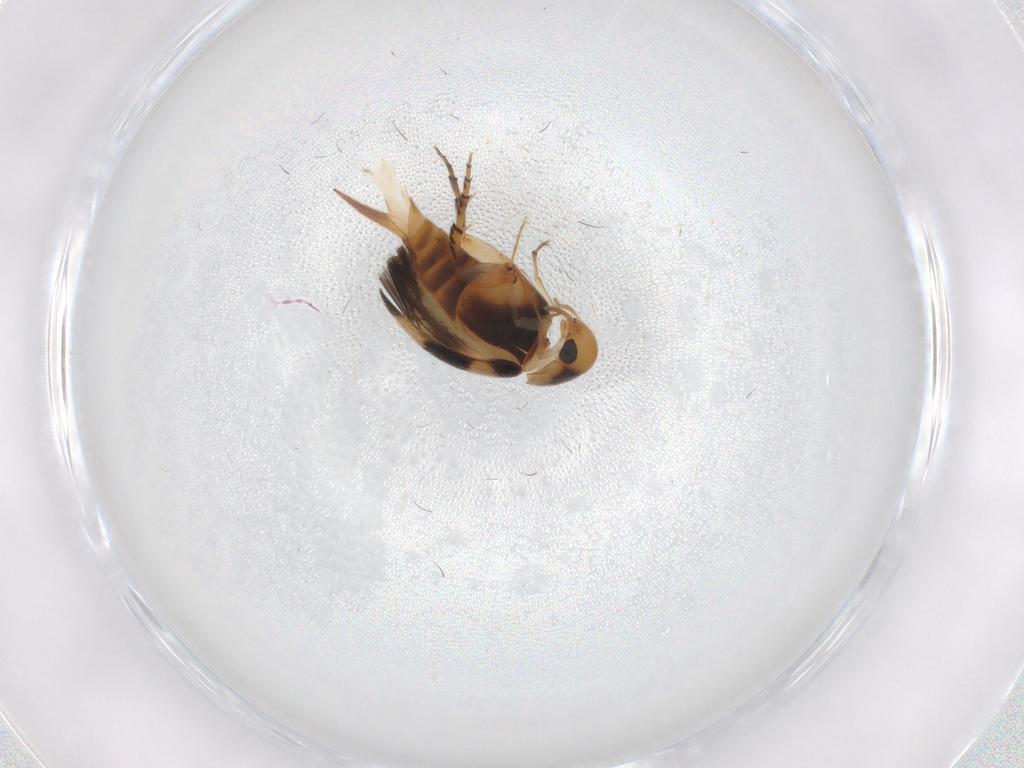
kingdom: Animalia
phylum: Arthropoda
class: Insecta
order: Coleoptera
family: Mordellidae
